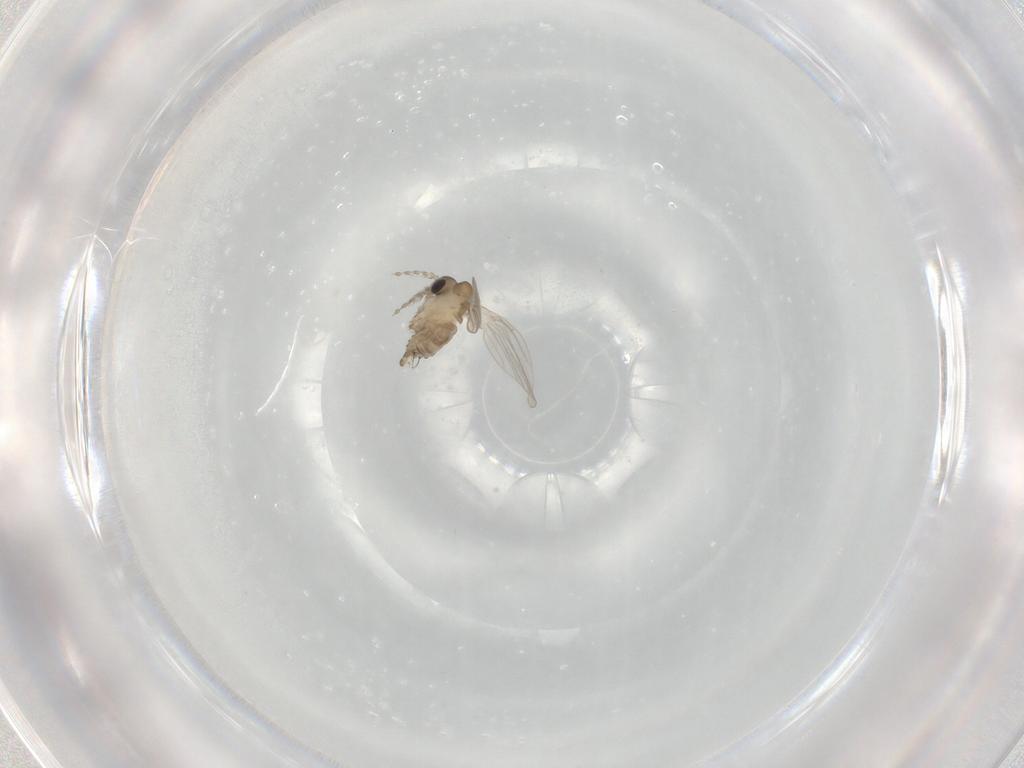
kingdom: Animalia
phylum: Arthropoda
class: Insecta
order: Diptera
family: Psychodidae
